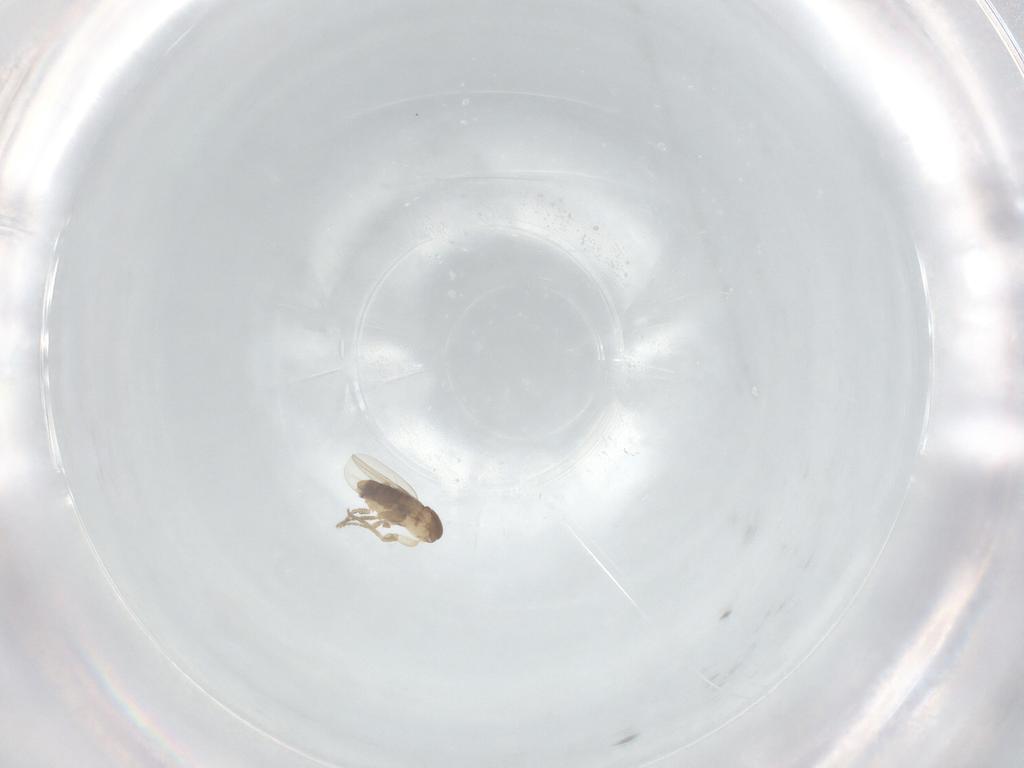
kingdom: Animalia
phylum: Arthropoda
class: Insecta
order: Diptera
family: Phoridae
